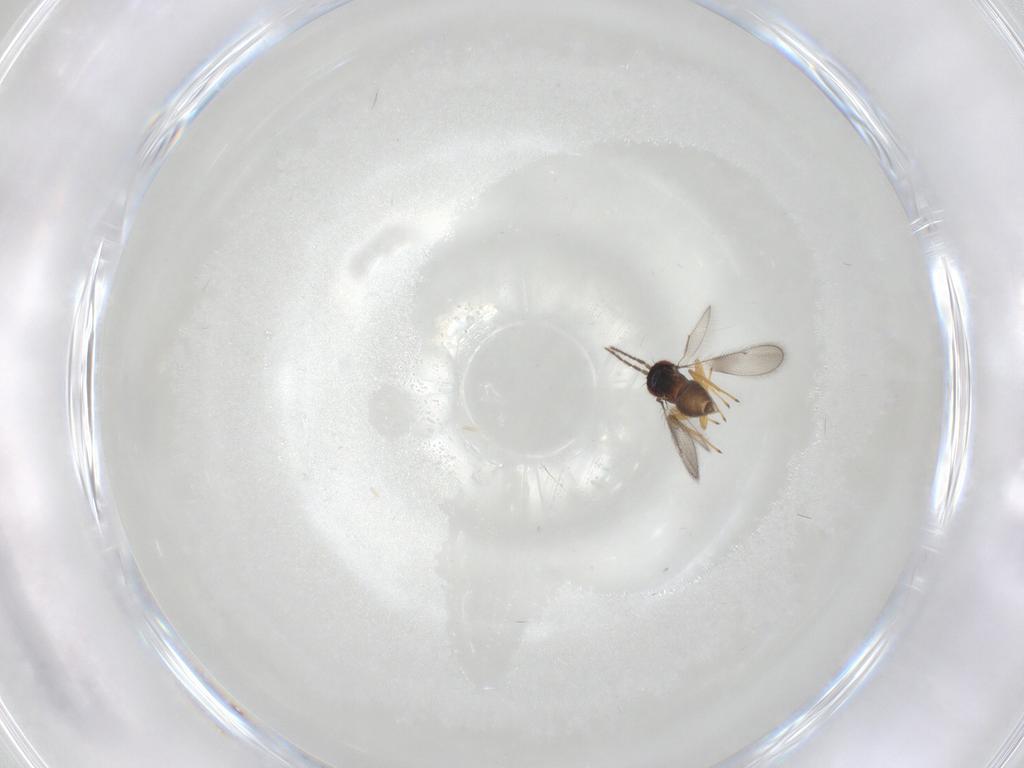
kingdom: Animalia
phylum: Arthropoda
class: Insecta
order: Hymenoptera
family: Eulophidae
